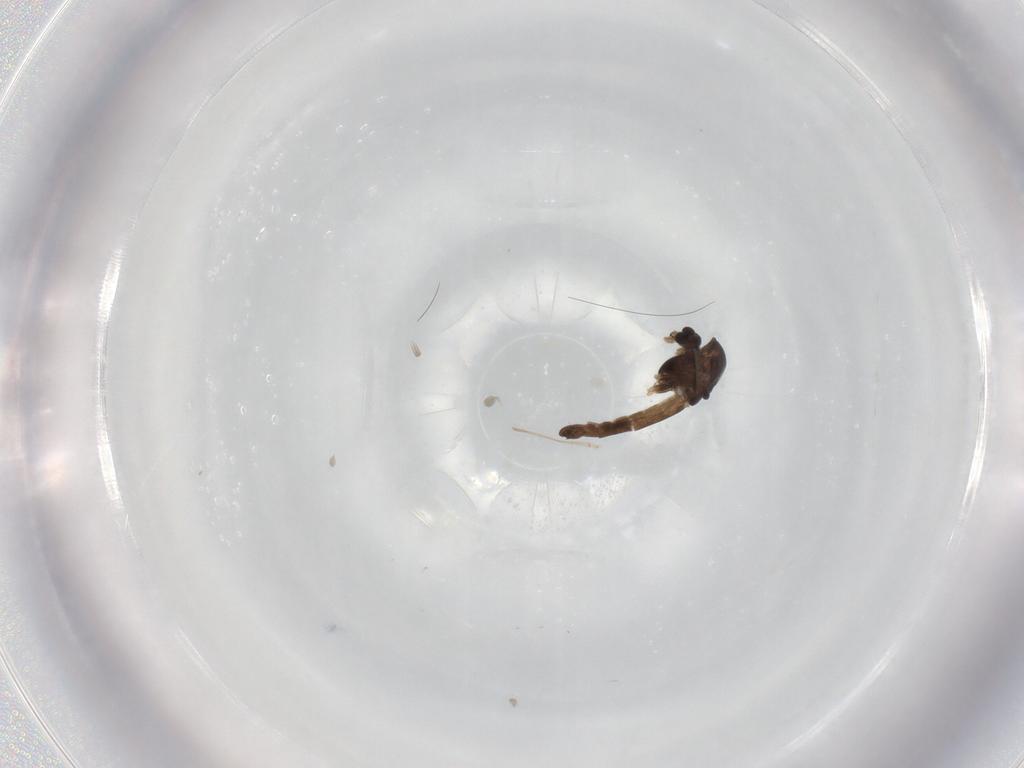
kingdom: Animalia
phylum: Arthropoda
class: Insecta
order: Diptera
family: Chironomidae
